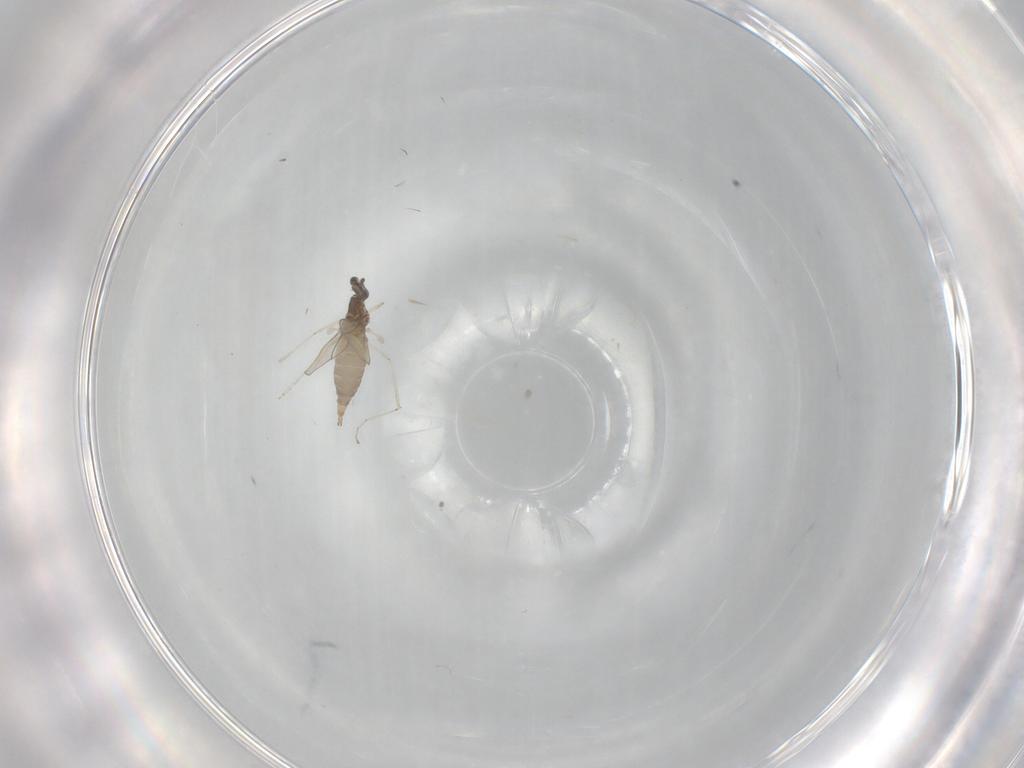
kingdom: Animalia
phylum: Arthropoda
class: Insecta
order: Diptera
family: Cecidomyiidae
